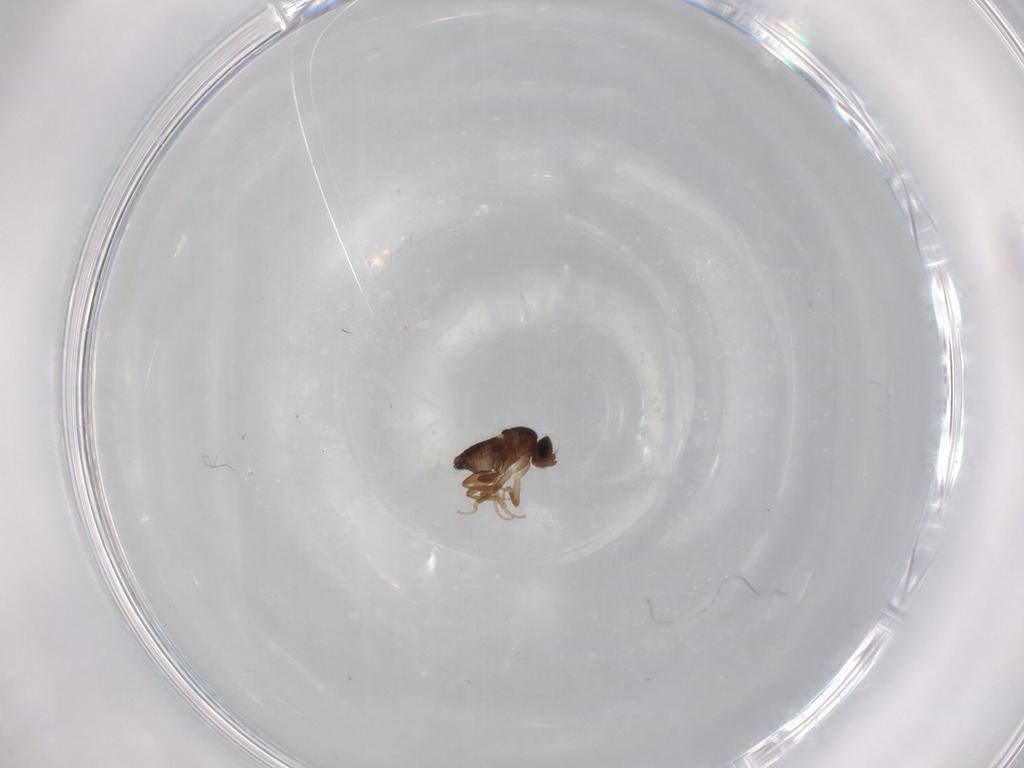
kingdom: Animalia
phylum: Arthropoda
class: Insecta
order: Diptera
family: Phoridae
